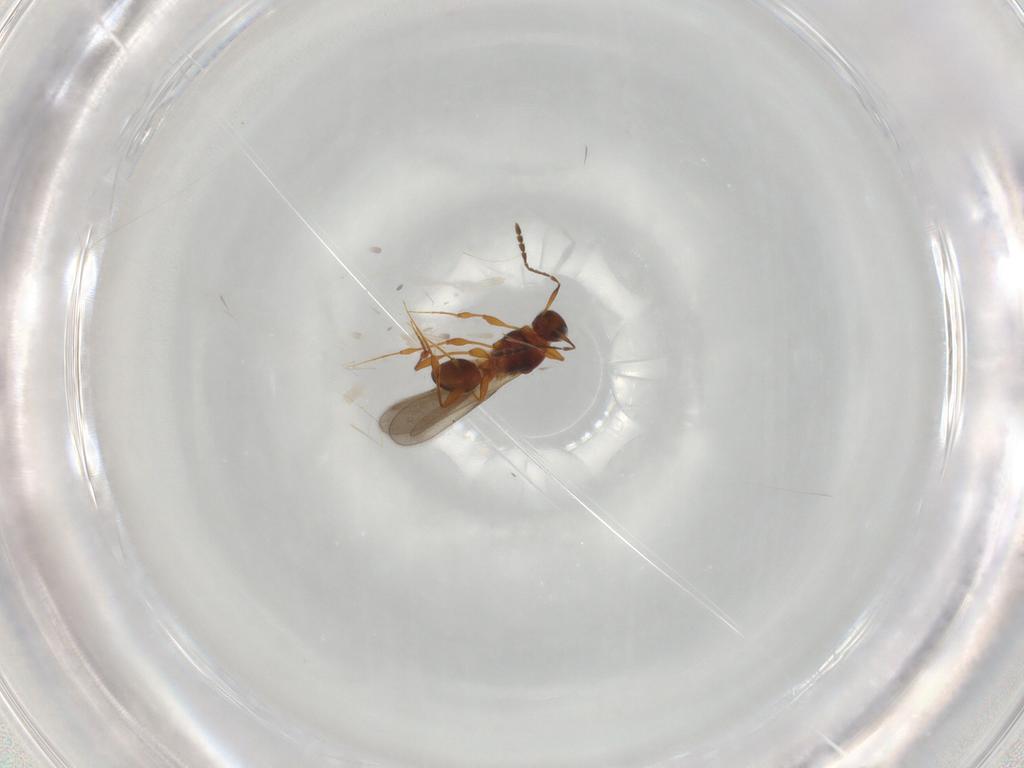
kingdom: Animalia
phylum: Arthropoda
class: Insecta
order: Hymenoptera
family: Platygastridae
